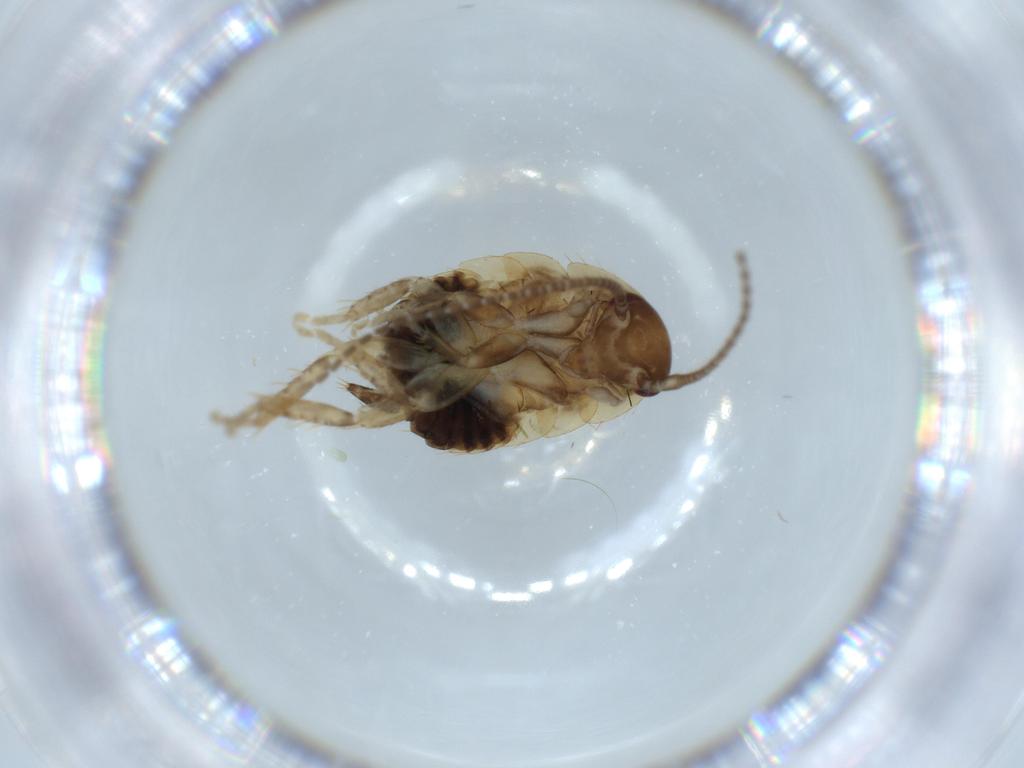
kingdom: Animalia
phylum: Arthropoda
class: Insecta
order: Blattodea
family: Ectobiidae
